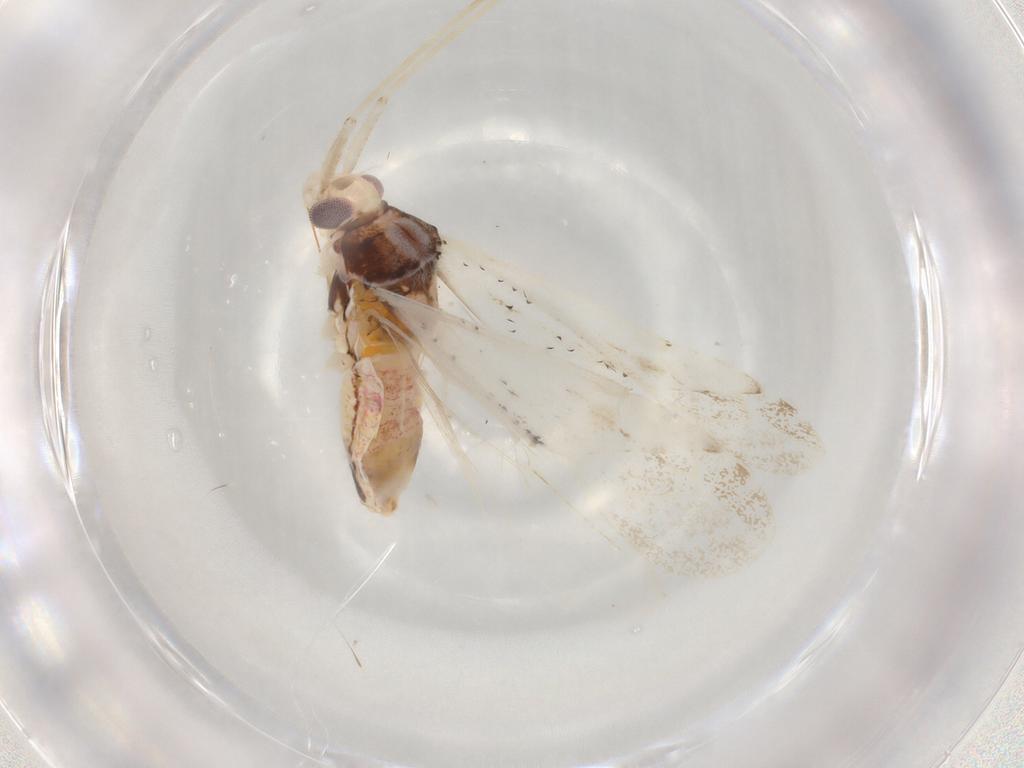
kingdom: Animalia
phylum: Arthropoda
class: Insecta
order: Hemiptera
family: Miridae
